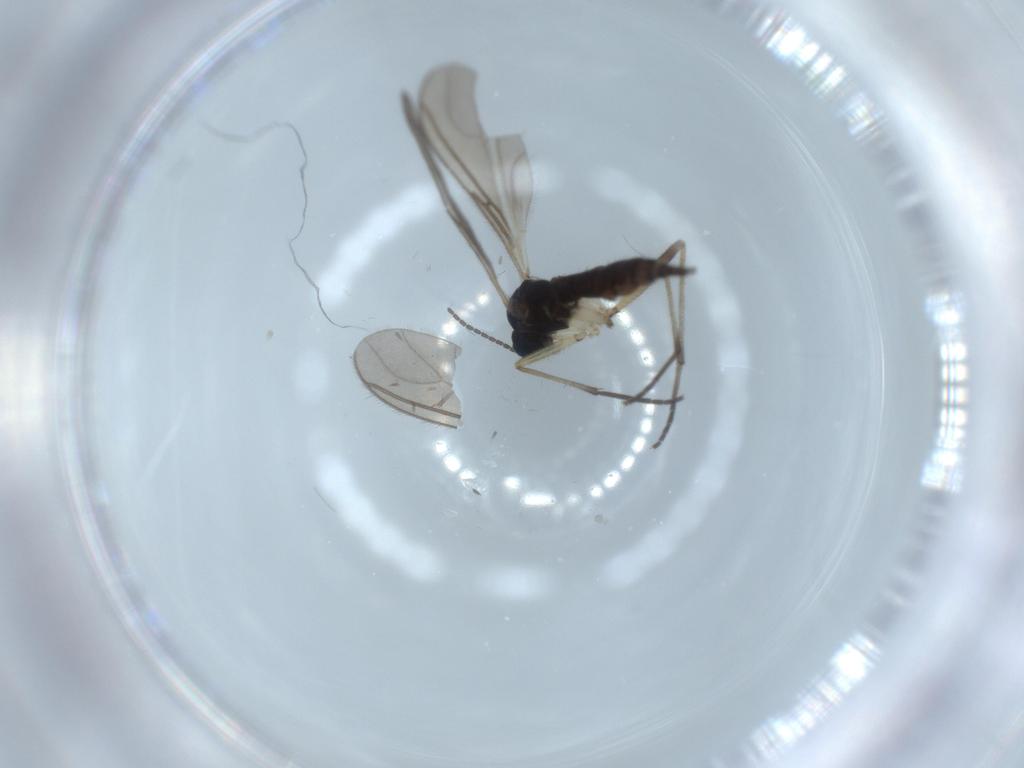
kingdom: Animalia
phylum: Arthropoda
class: Insecta
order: Diptera
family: Sciaridae
